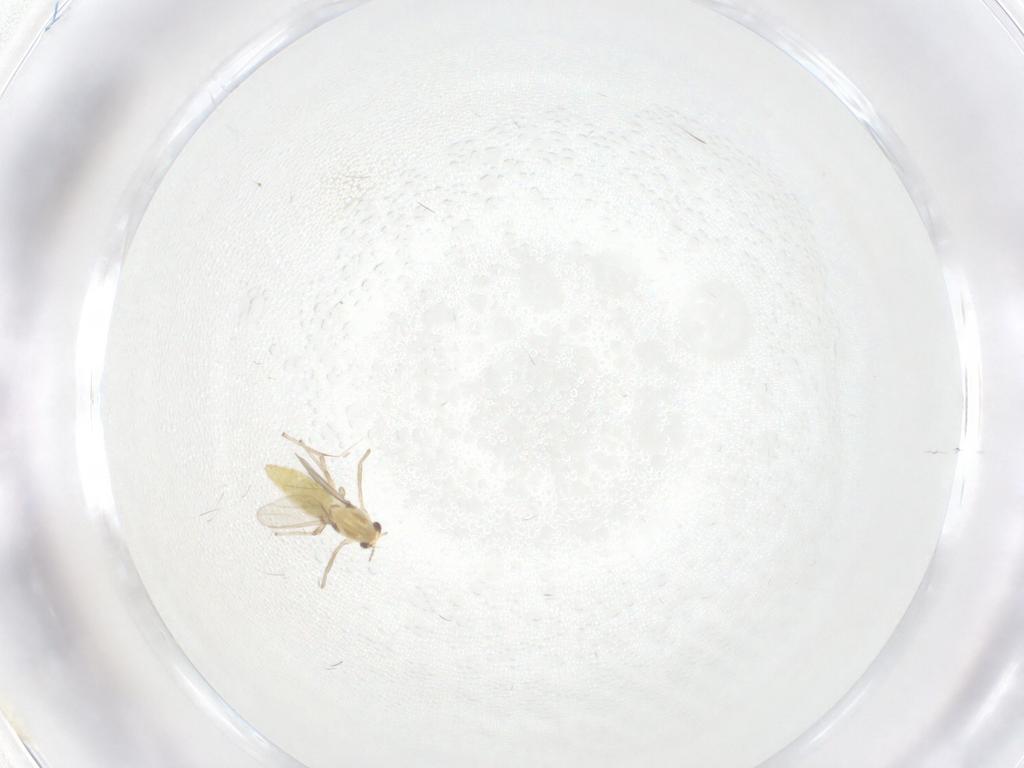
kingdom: Animalia
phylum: Arthropoda
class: Insecta
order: Diptera
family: Chironomidae
